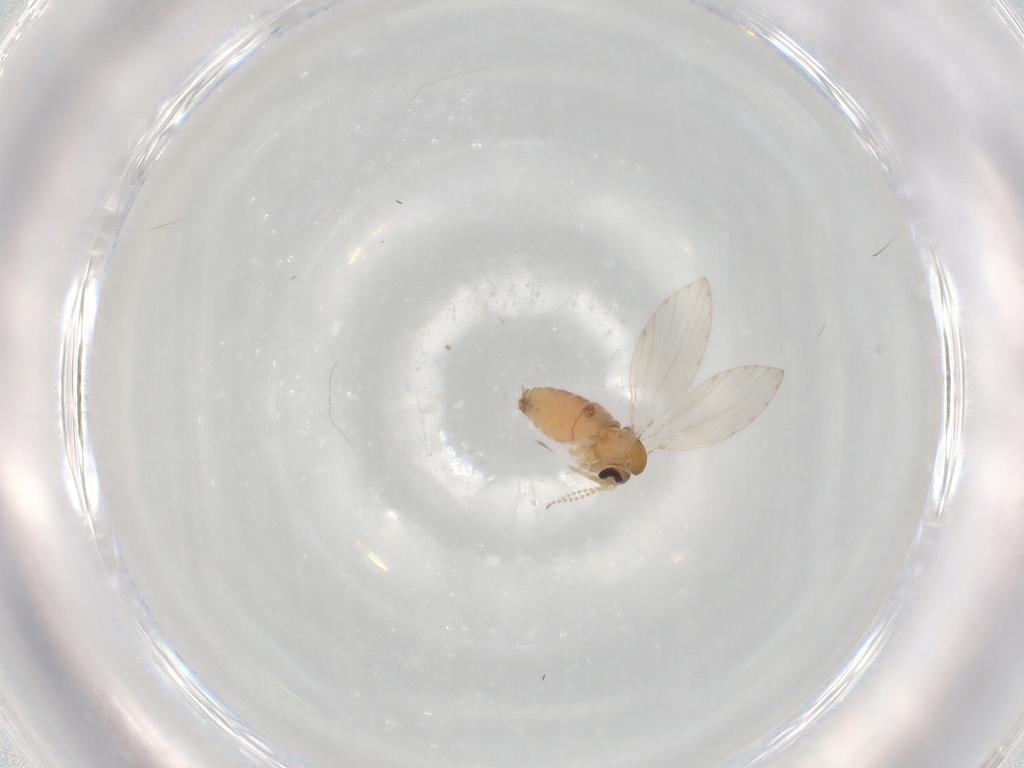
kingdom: Animalia
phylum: Arthropoda
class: Insecta
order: Diptera
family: Psychodidae
